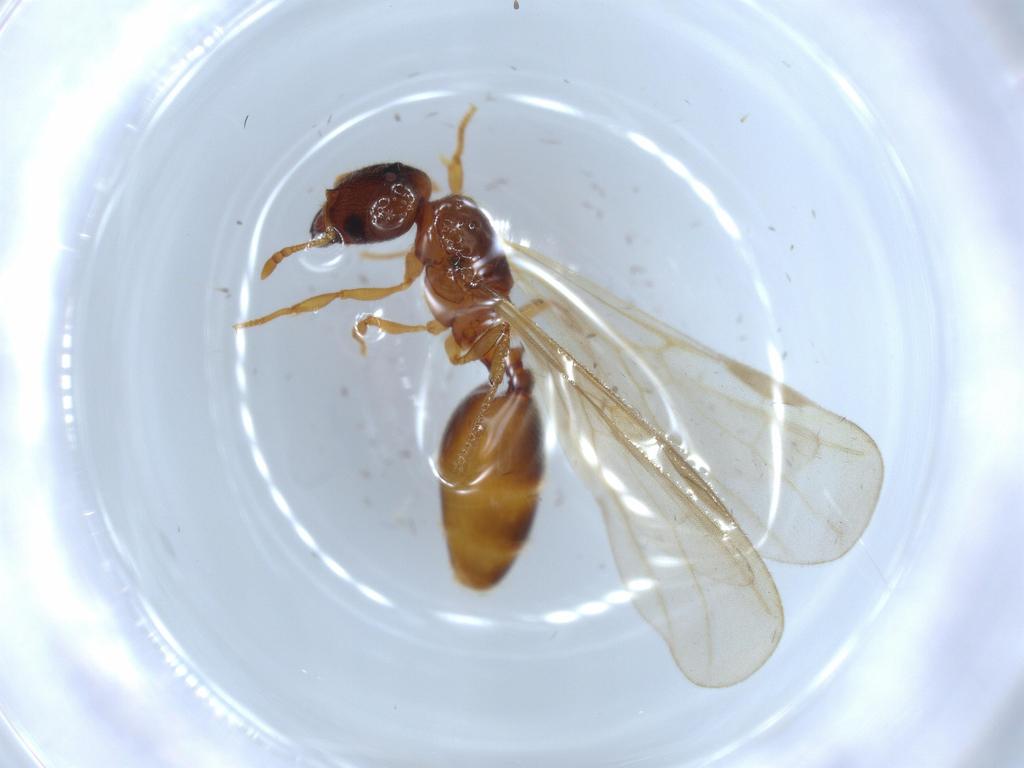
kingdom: Animalia
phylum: Arthropoda
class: Insecta
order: Hymenoptera
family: Formicidae
